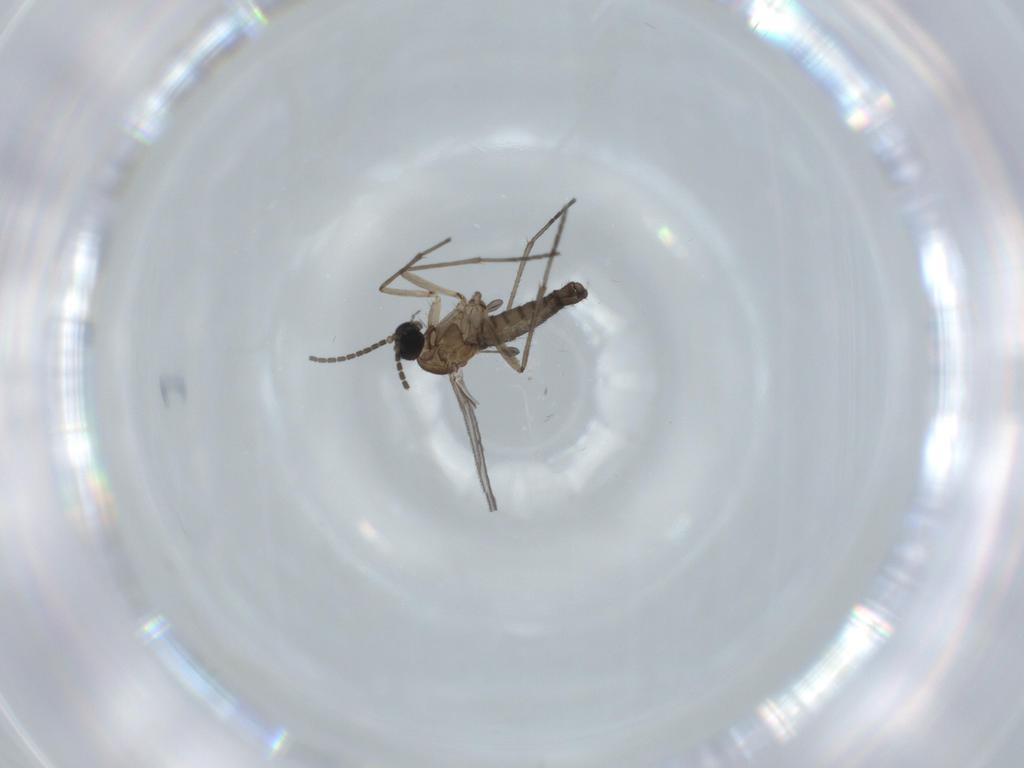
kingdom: Animalia
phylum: Arthropoda
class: Insecta
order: Diptera
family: Sciaridae
